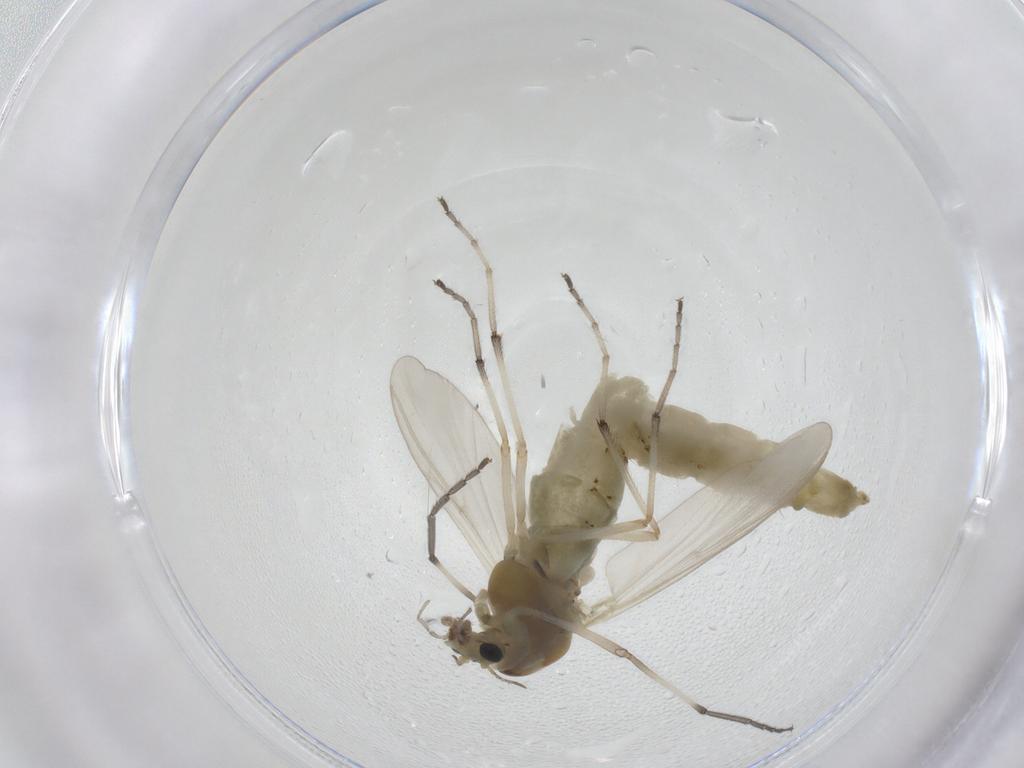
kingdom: Animalia
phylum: Arthropoda
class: Insecta
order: Diptera
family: Chironomidae
